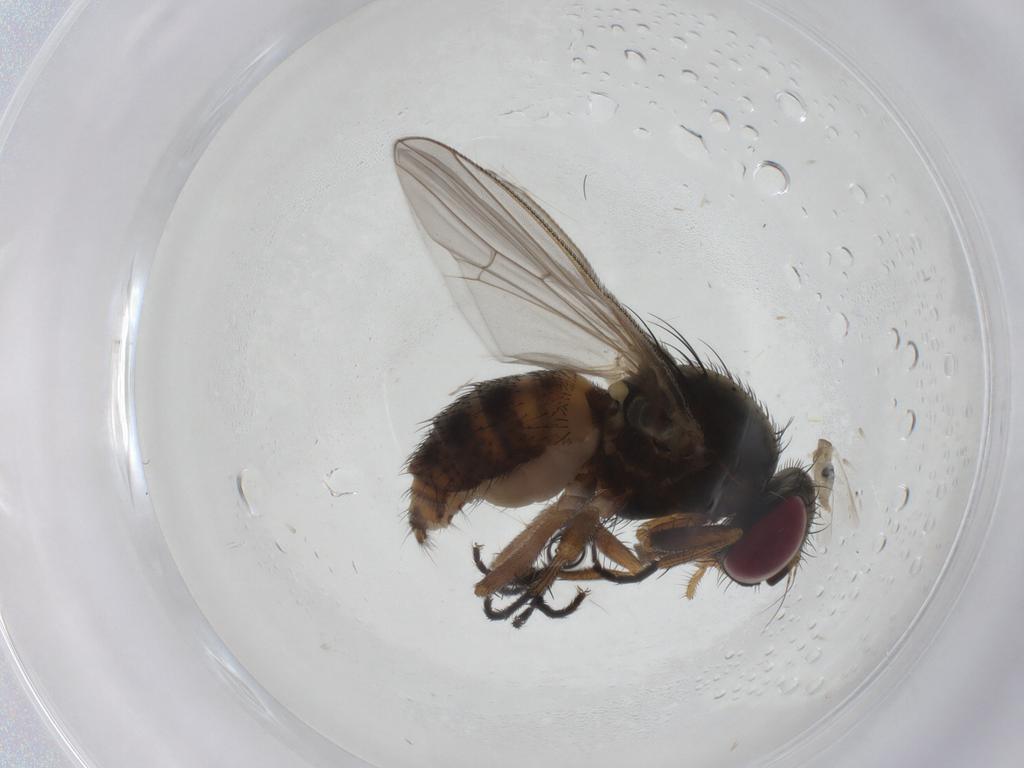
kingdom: Animalia
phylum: Arthropoda
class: Insecta
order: Diptera
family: Fannia
